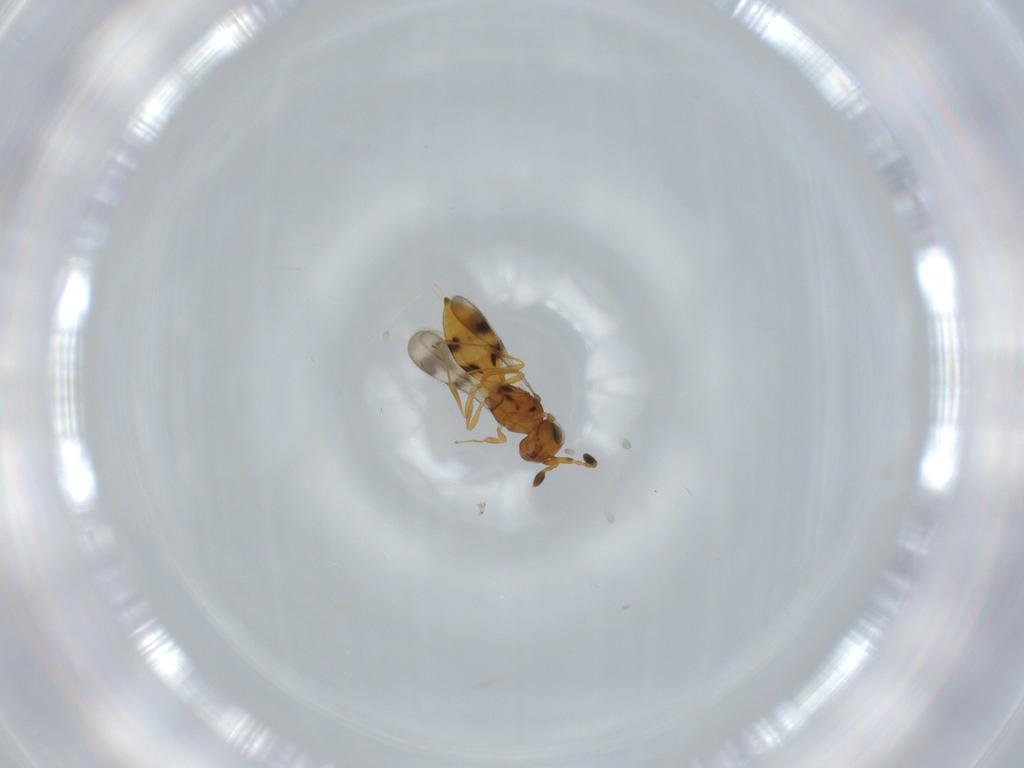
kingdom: Animalia
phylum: Arthropoda
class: Insecta
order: Hymenoptera
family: Scelionidae
